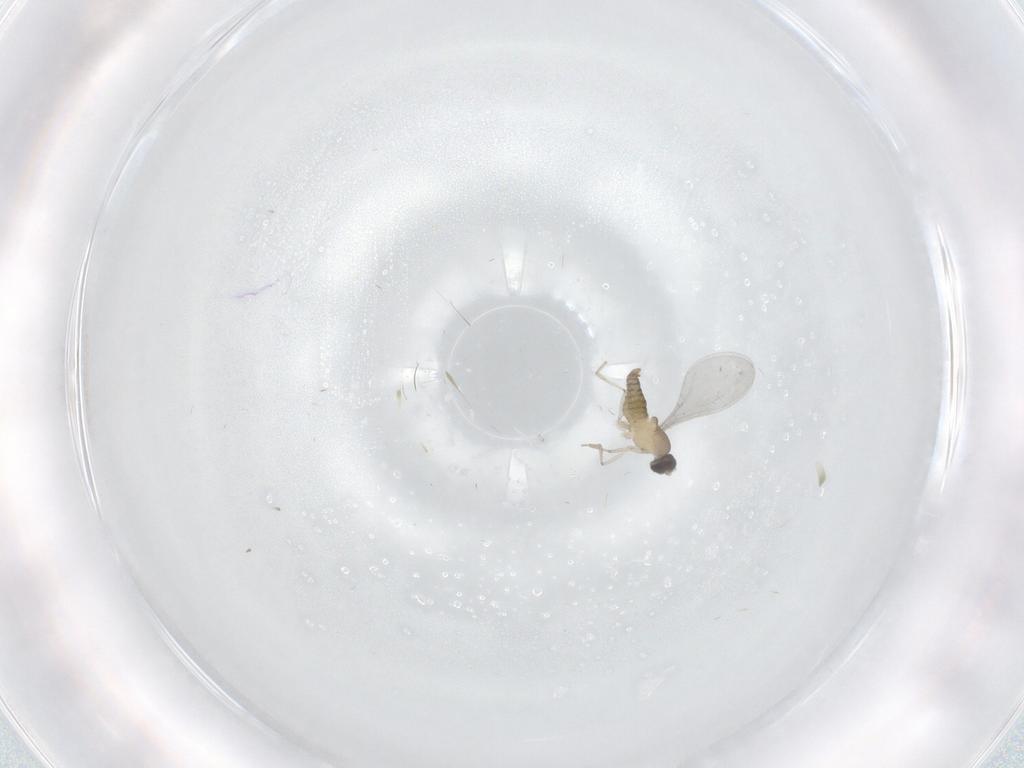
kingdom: Animalia
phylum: Arthropoda
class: Insecta
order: Diptera
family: Cecidomyiidae
